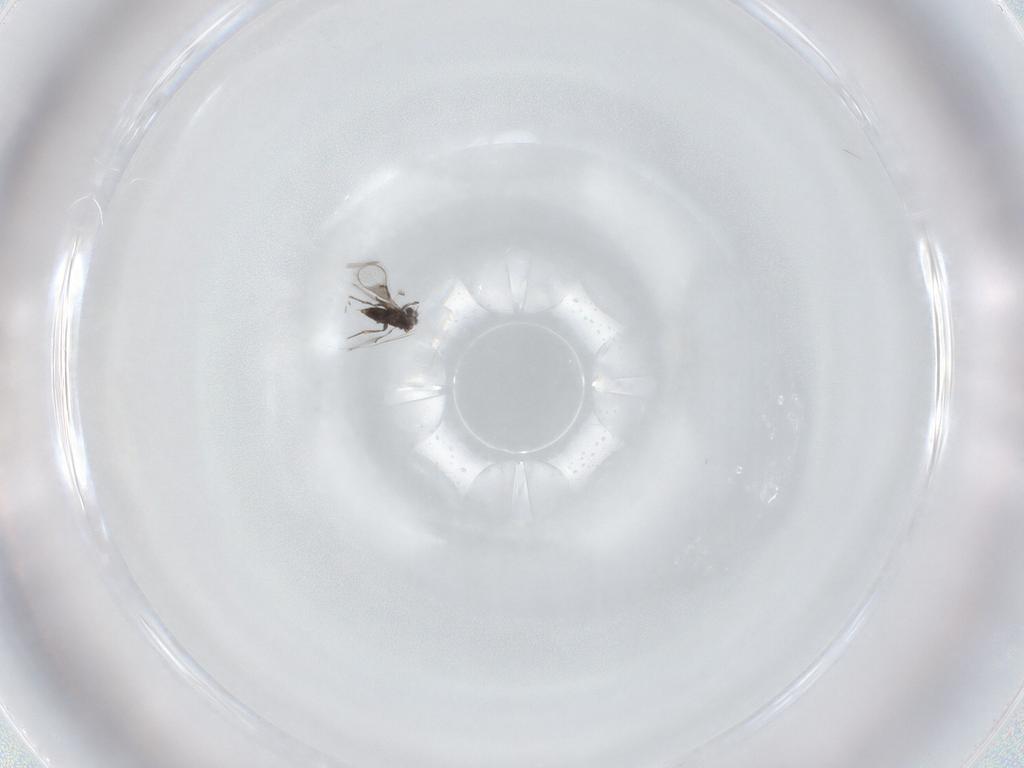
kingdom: Animalia
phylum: Arthropoda
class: Insecta
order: Hymenoptera
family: Trichogrammatidae
